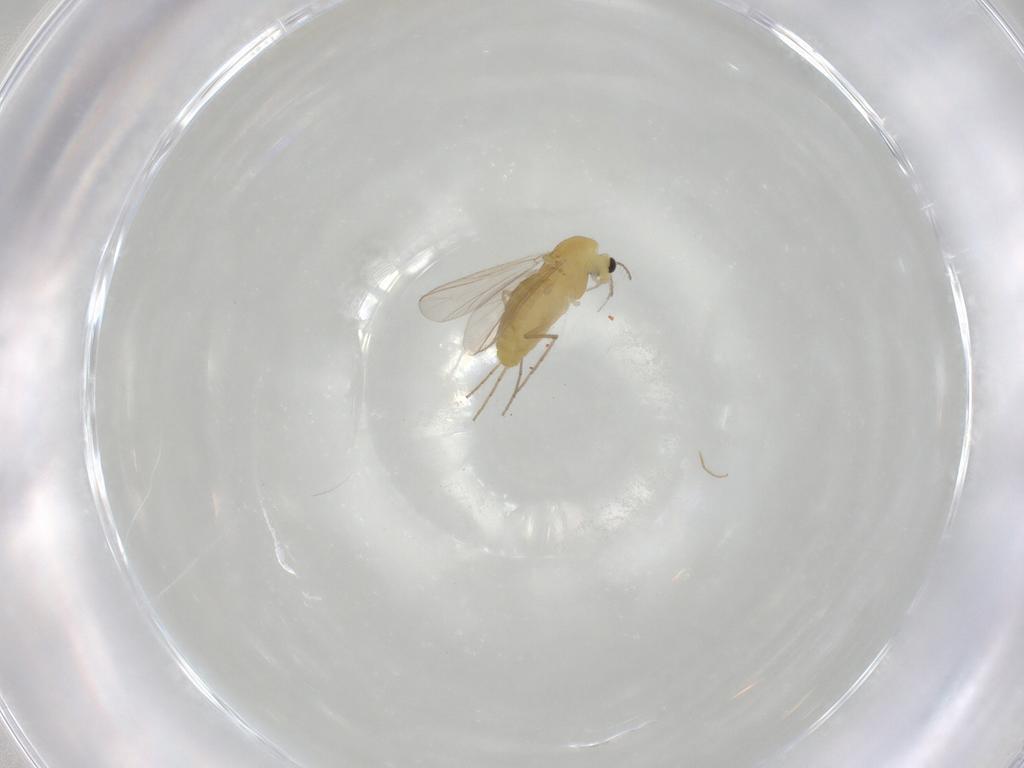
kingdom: Animalia
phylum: Arthropoda
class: Insecta
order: Diptera
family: Chironomidae
